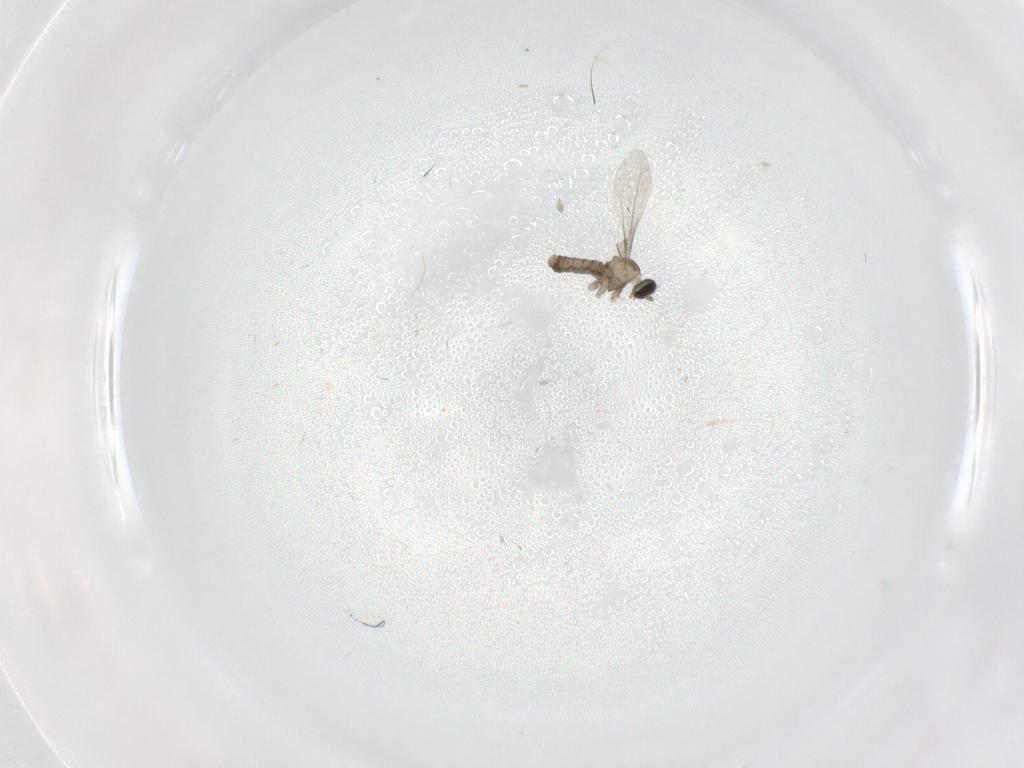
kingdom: Animalia
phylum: Arthropoda
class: Insecta
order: Diptera
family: Cecidomyiidae
